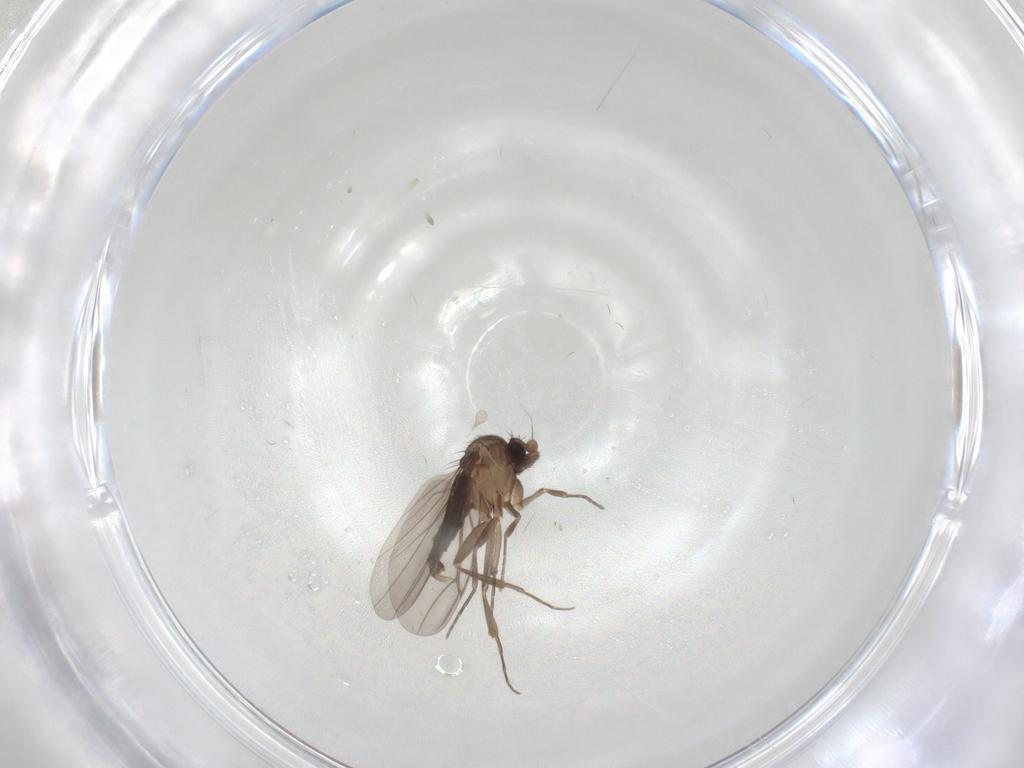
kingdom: Animalia
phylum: Arthropoda
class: Insecta
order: Diptera
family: Cecidomyiidae
